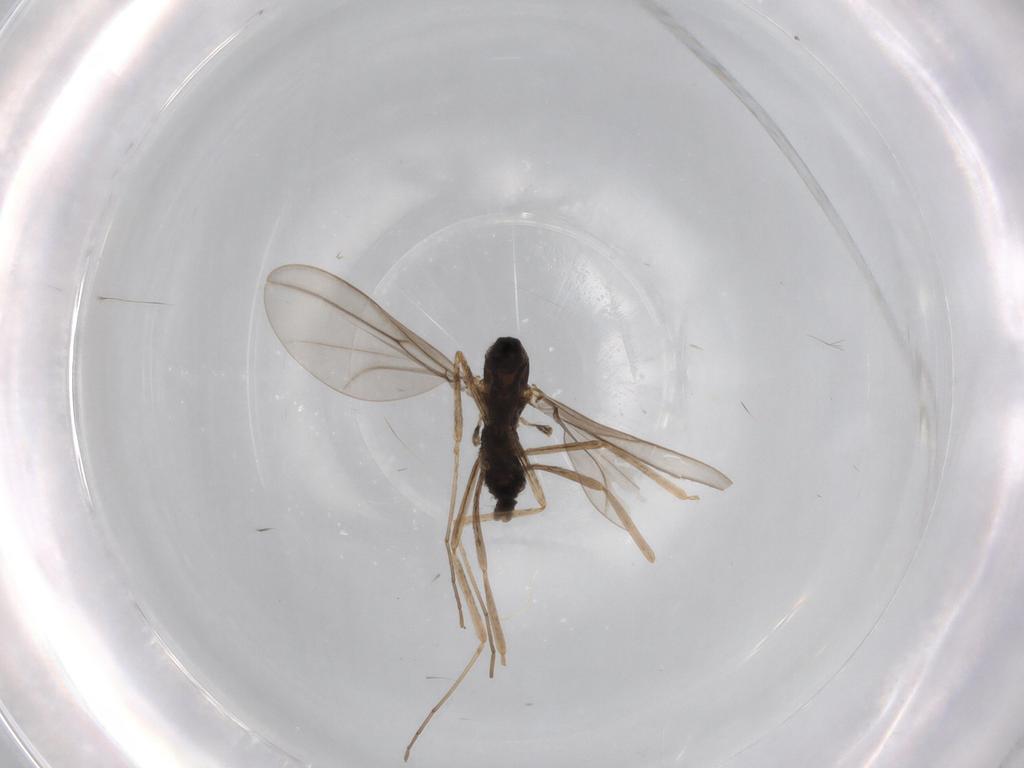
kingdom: Animalia
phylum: Arthropoda
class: Insecta
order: Diptera
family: Cecidomyiidae
